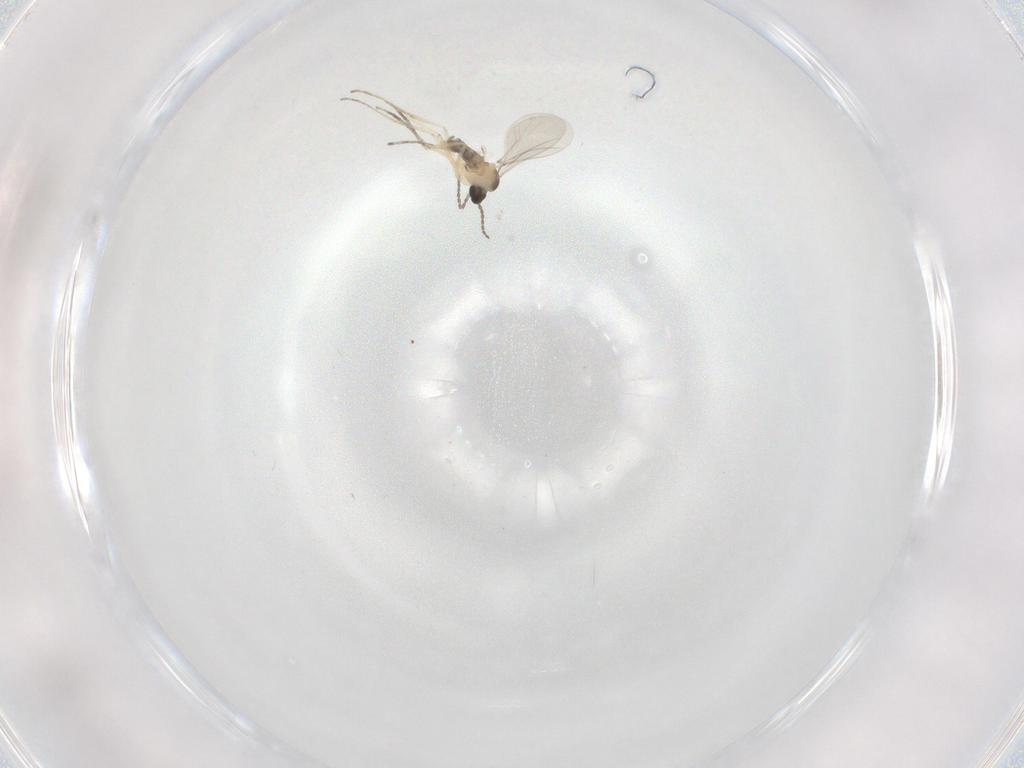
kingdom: Animalia
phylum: Arthropoda
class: Insecta
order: Diptera
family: Cecidomyiidae
